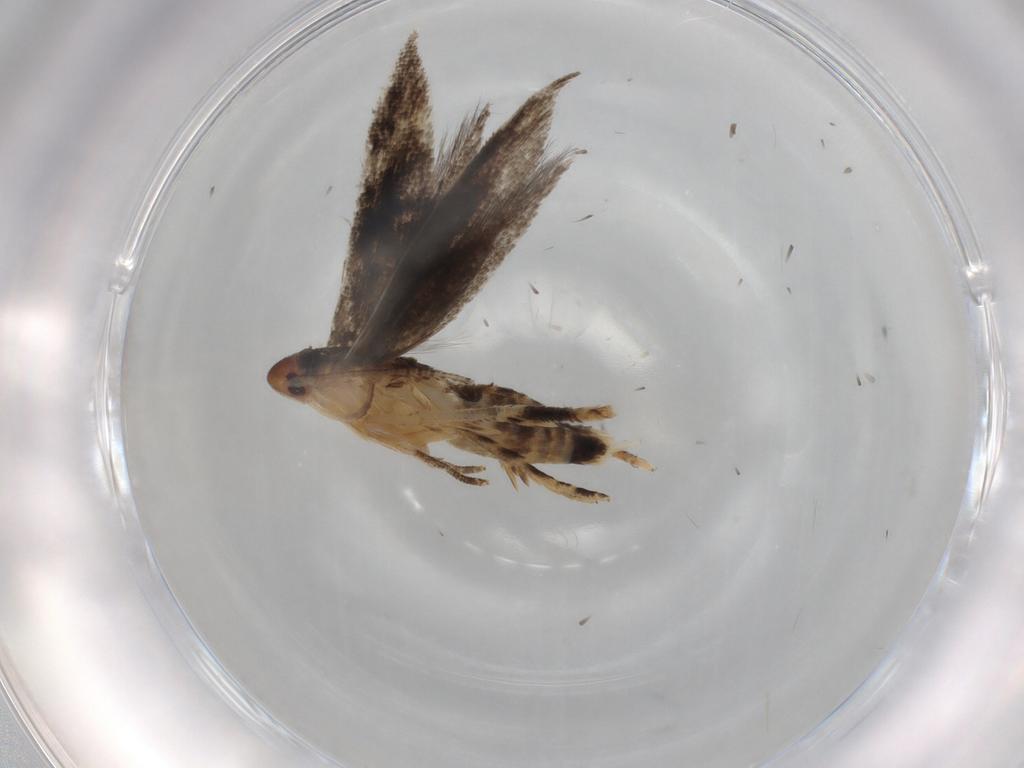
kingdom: Animalia
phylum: Arthropoda
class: Insecta
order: Lepidoptera
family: Momphidae
